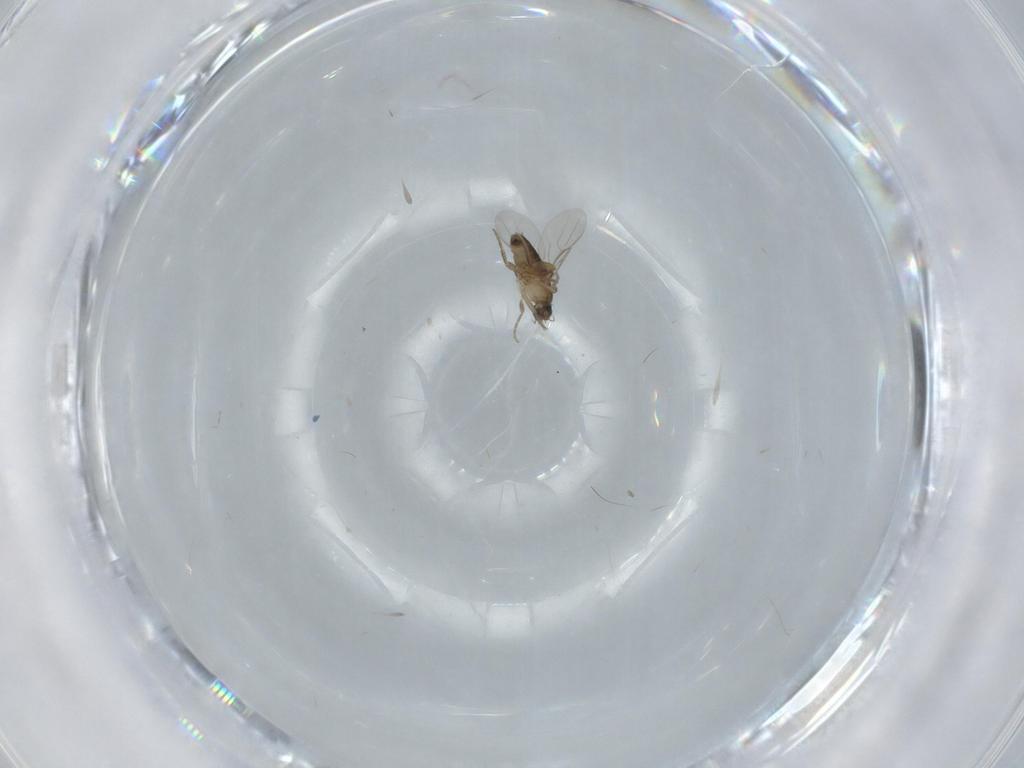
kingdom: Animalia
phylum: Arthropoda
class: Insecta
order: Diptera
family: Phoridae
